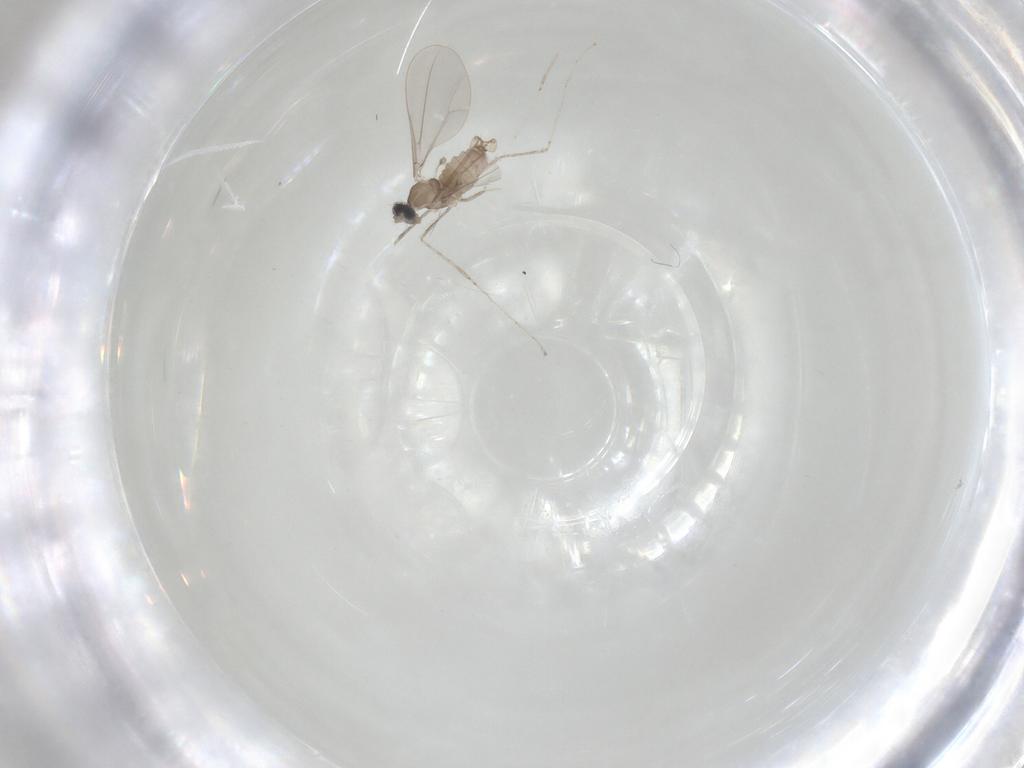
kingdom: Animalia
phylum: Arthropoda
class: Insecta
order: Diptera
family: Cecidomyiidae
